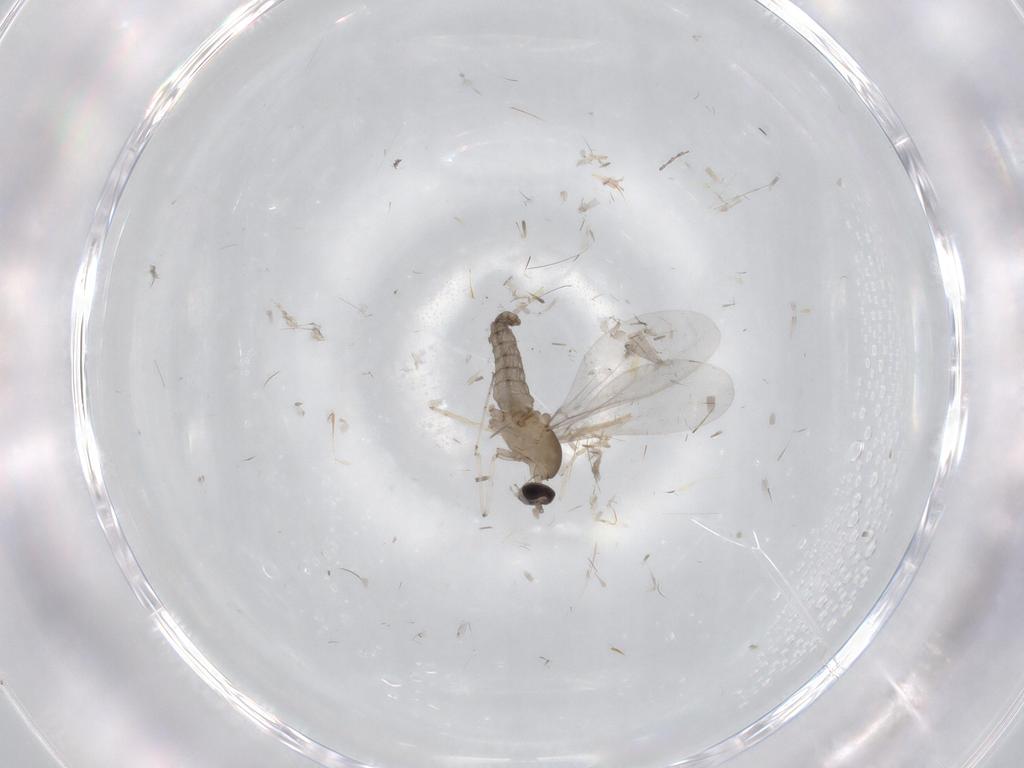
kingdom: Animalia
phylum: Arthropoda
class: Insecta
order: Diptera
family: Cecidomyiidae
